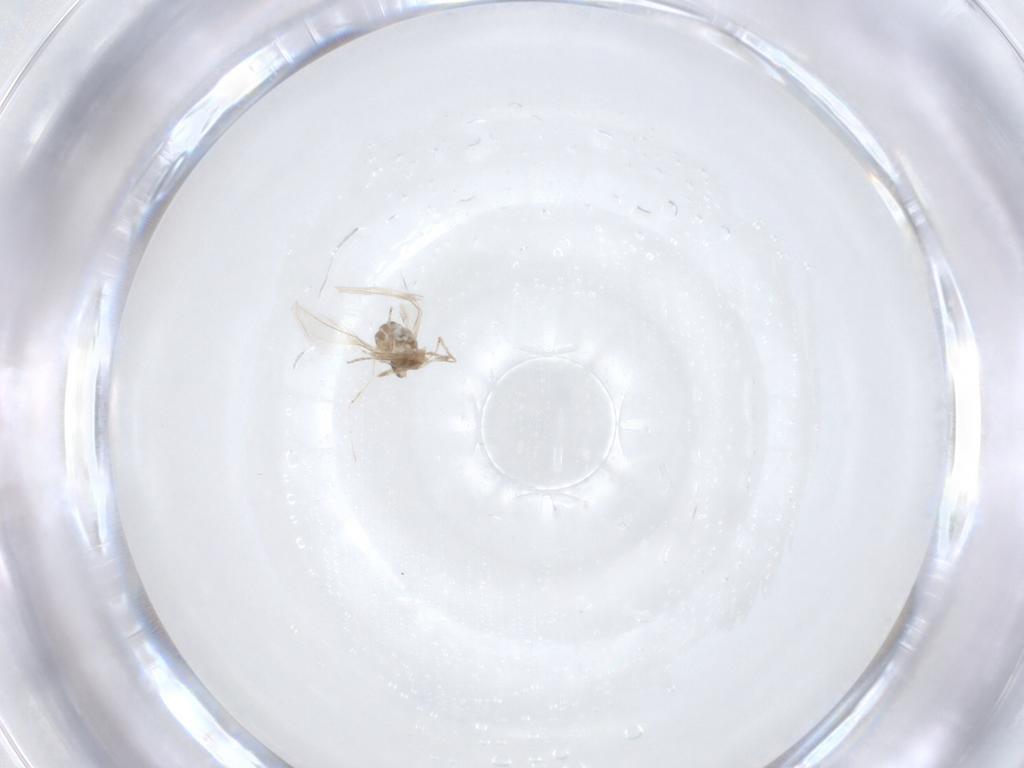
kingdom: Animalia
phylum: Arthropoda
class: Insecta
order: Diptera
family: Cecidomyiidae
